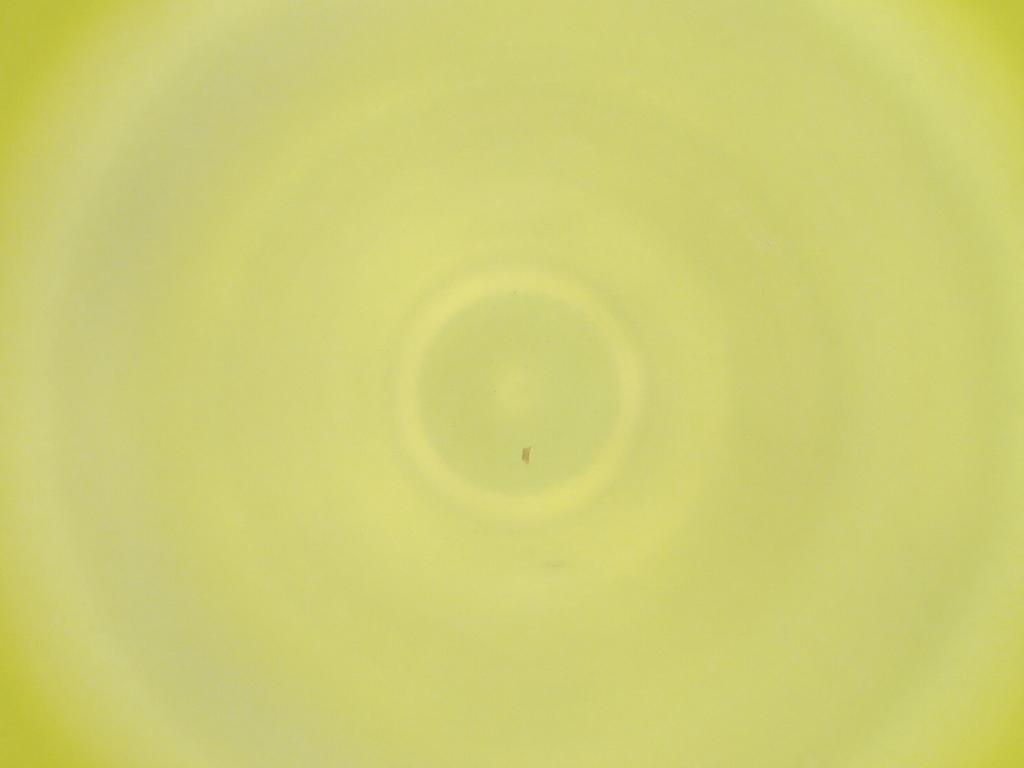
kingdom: Animalia
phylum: Arthropoda
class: Insecta
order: Diptera
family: Cecidomyiidae
